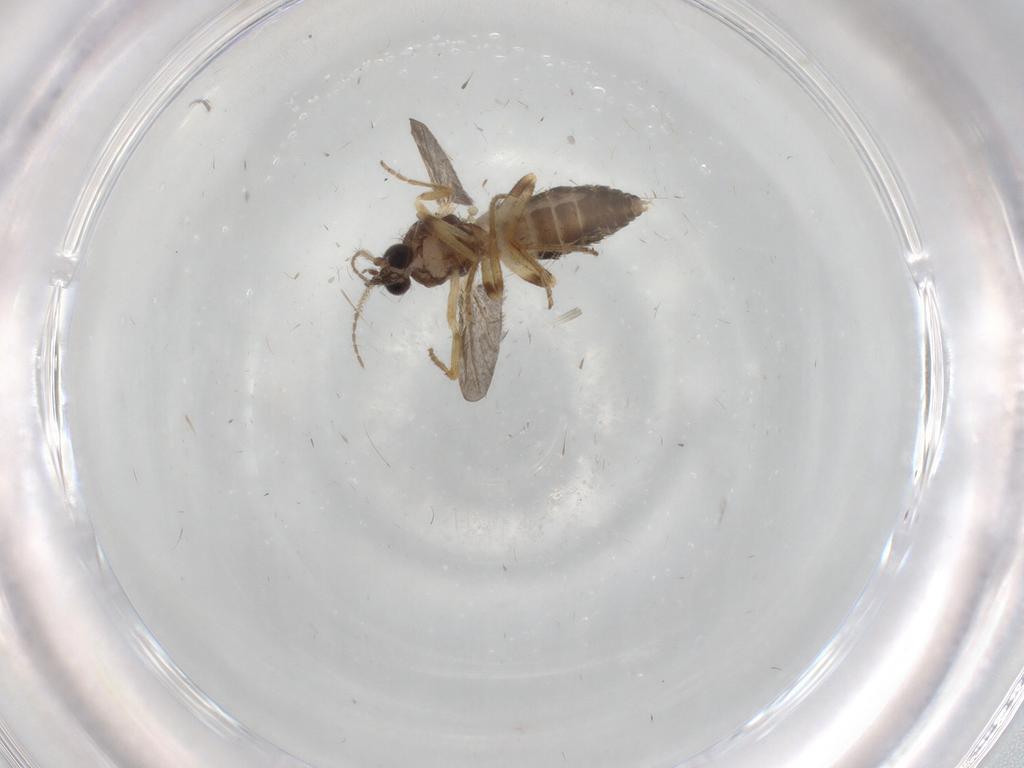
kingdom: Animalia
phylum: Arthropoda
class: Insecta
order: Diptera
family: Ceratopogonidae
